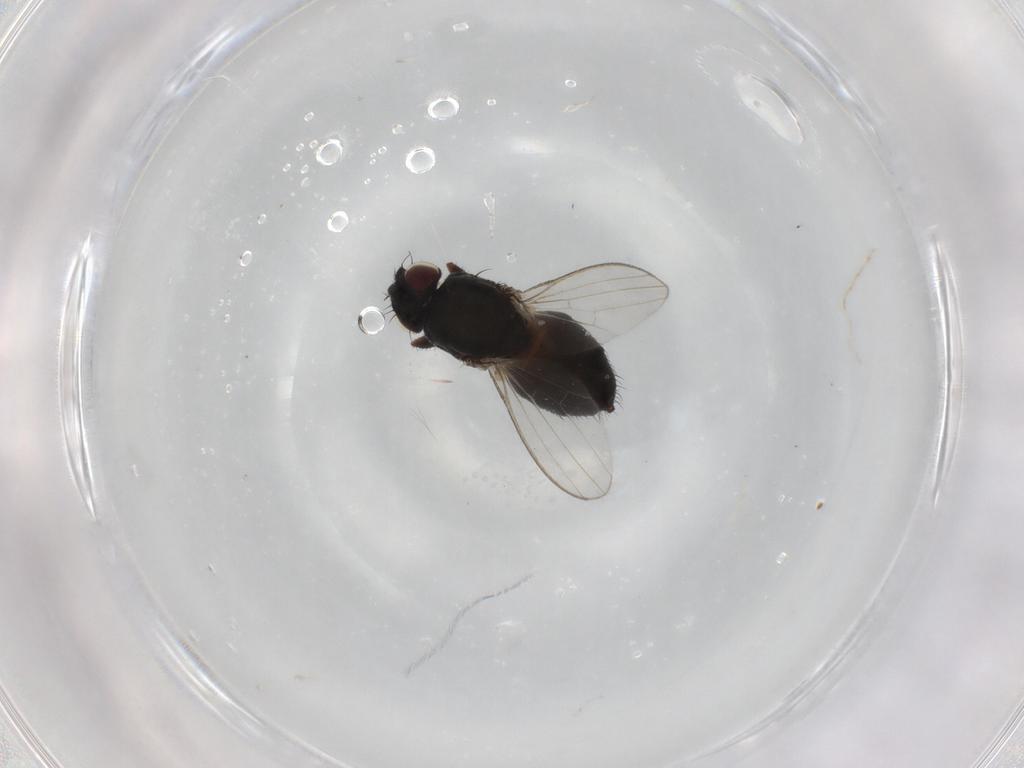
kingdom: Animalia
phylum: Arthropoda
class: Insecta
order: Diptera
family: Milichiidae
